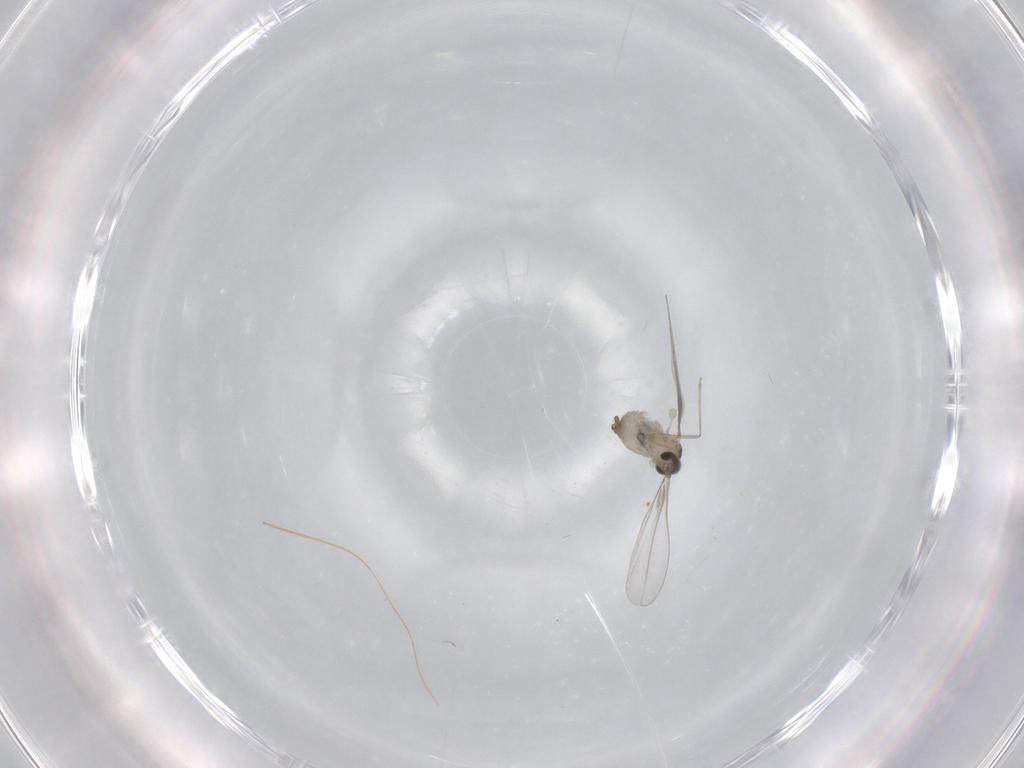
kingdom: Animalia
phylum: Arthropoda
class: Insecta
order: Diptera
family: Cecidomyiidae
